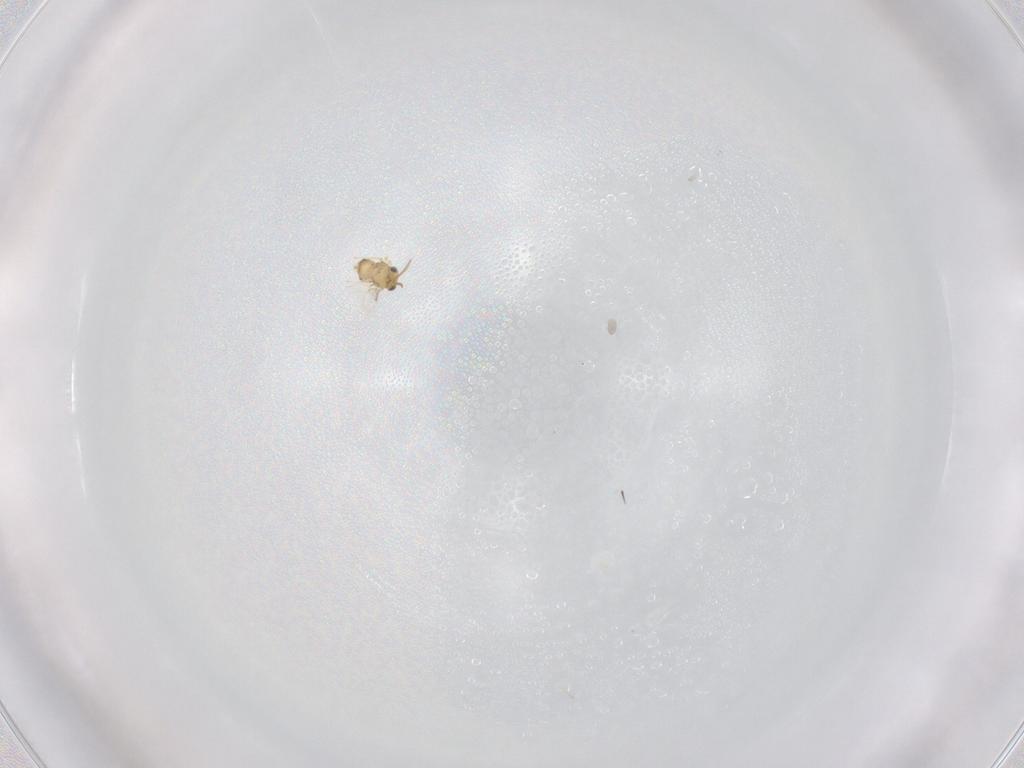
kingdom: Animalia
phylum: Arthropoda
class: Insecta
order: Hymenoptera
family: Aphelinidae
